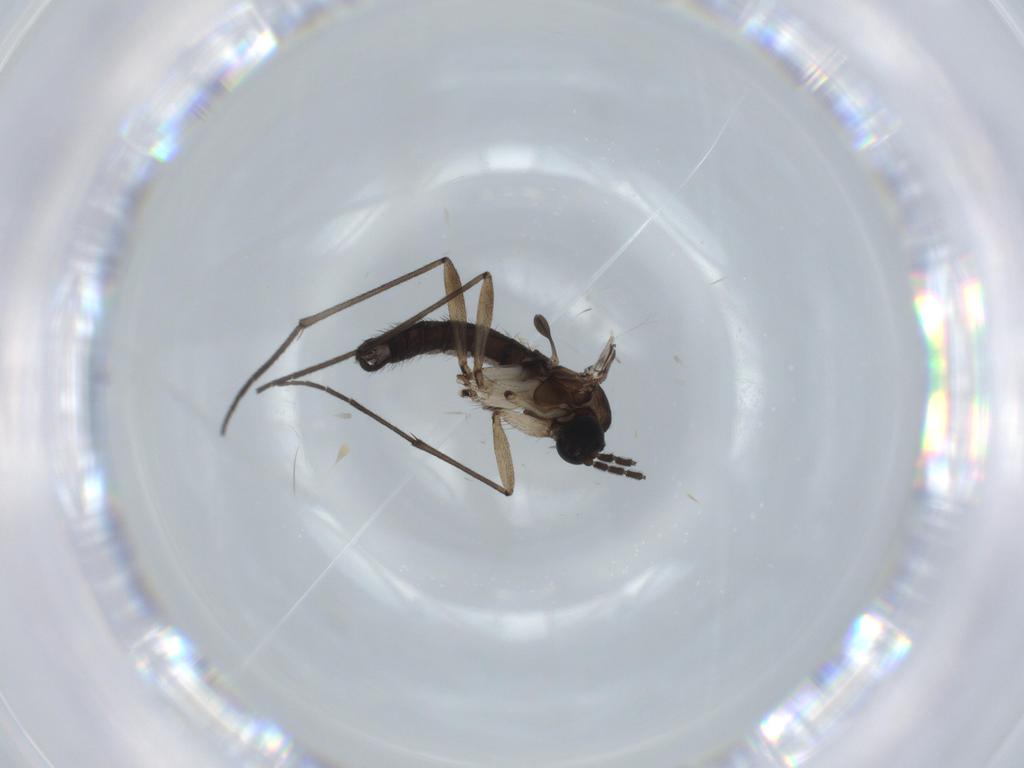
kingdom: Animalia
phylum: Arthropoda
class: Insecta
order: Diptera
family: Sciaridae
